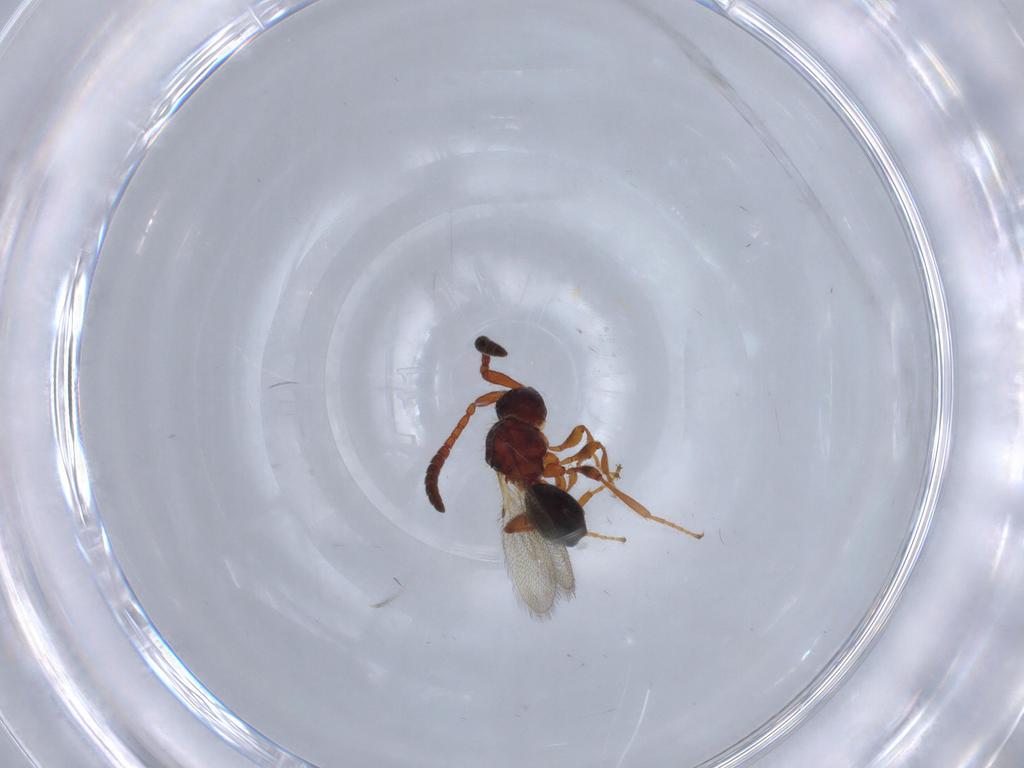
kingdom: Animalia
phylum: Arthropoda
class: Insecta
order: Hymenoptera
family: Diapriidae
